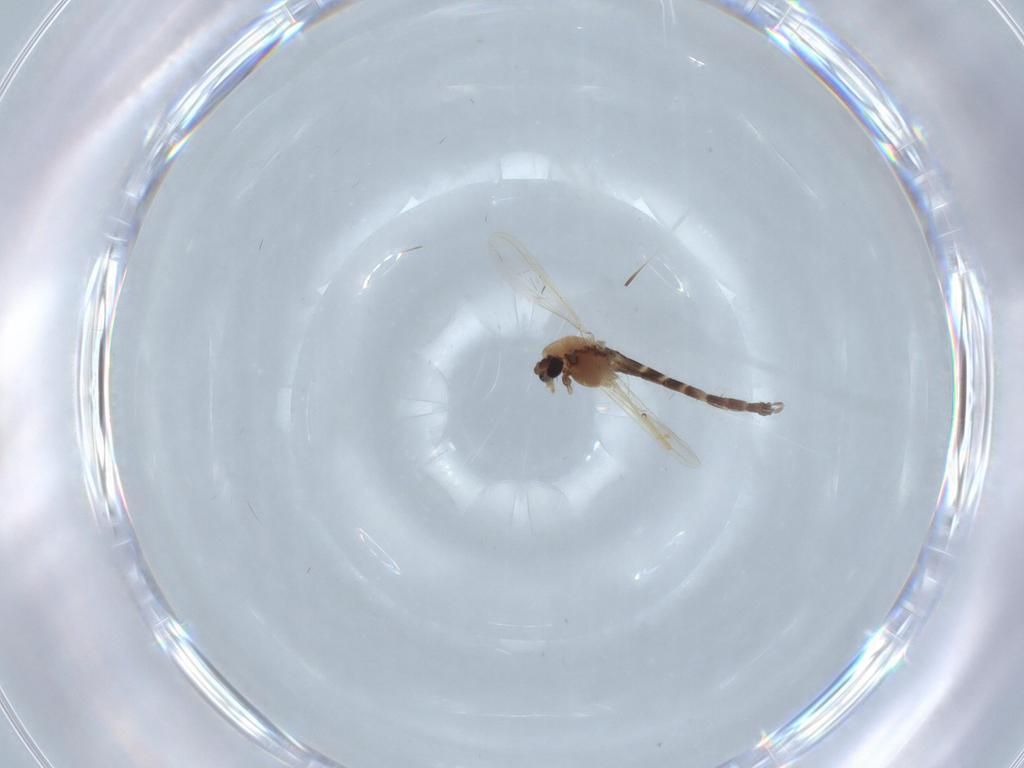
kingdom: Animalia
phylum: Arthropoda
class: Insecta
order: Diptera
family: Chironomidae
